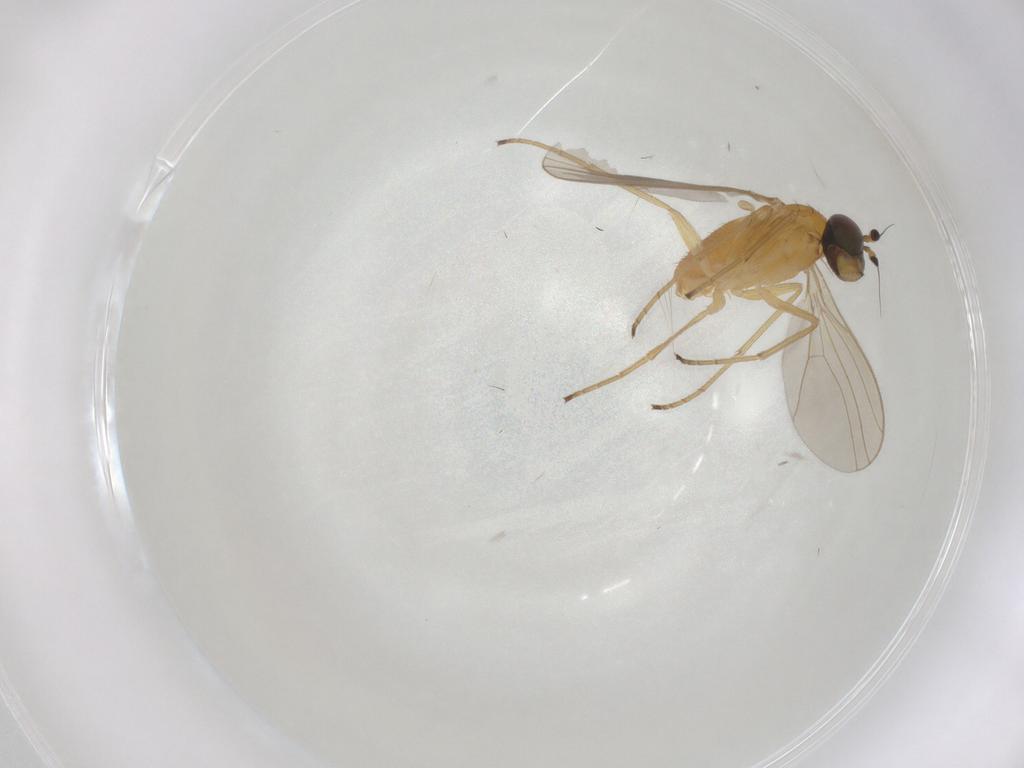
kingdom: Animalia
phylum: Arthropoda
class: Insecta
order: Diptera
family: Dolichopodidae
